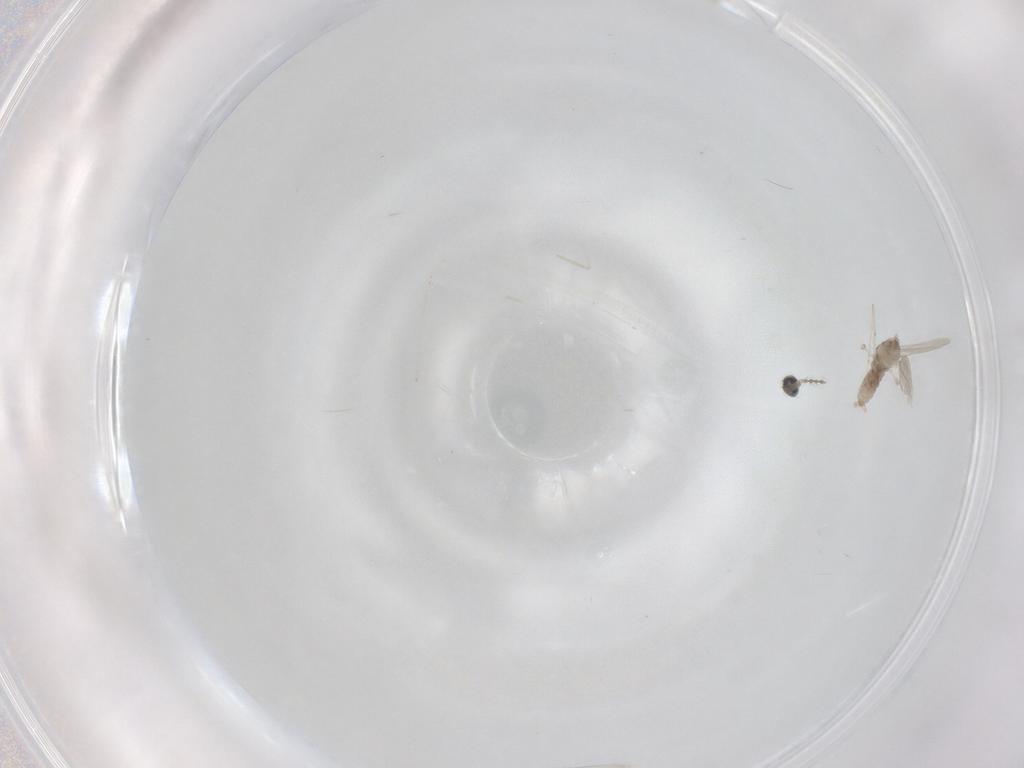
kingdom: Animalia
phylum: Arthropoda
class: Insecta
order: Diptera
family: Cecidomyiidae
